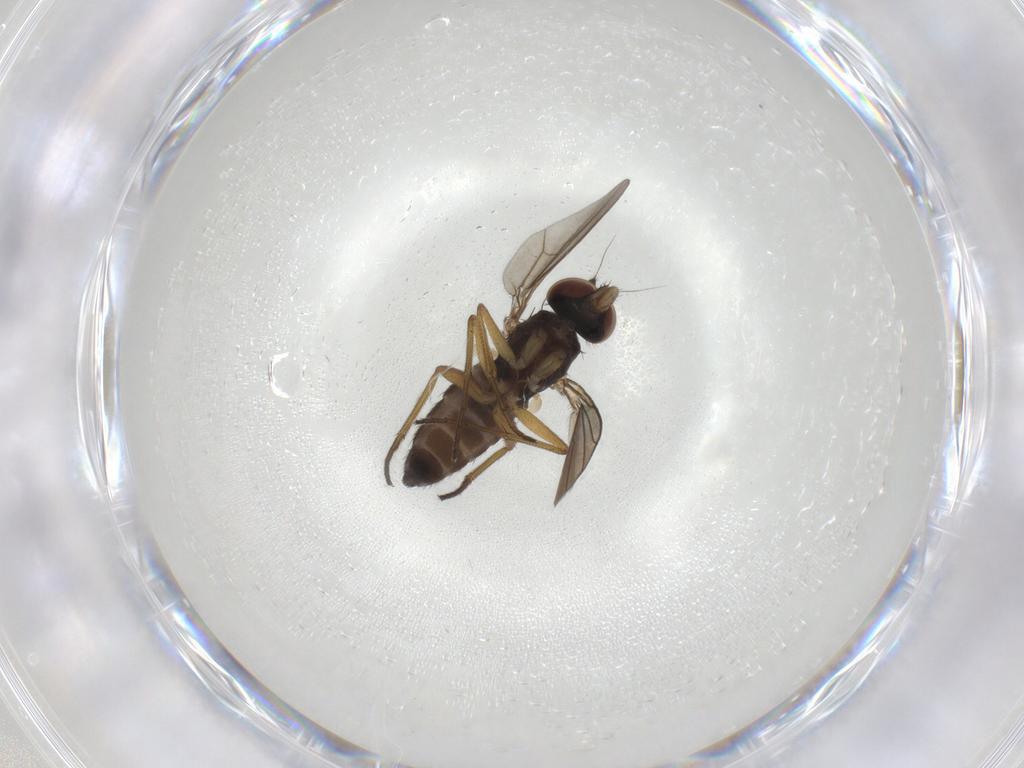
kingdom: Animalia
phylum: Arthropoda
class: Insecta
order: Diptera
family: Dolichopodidae
